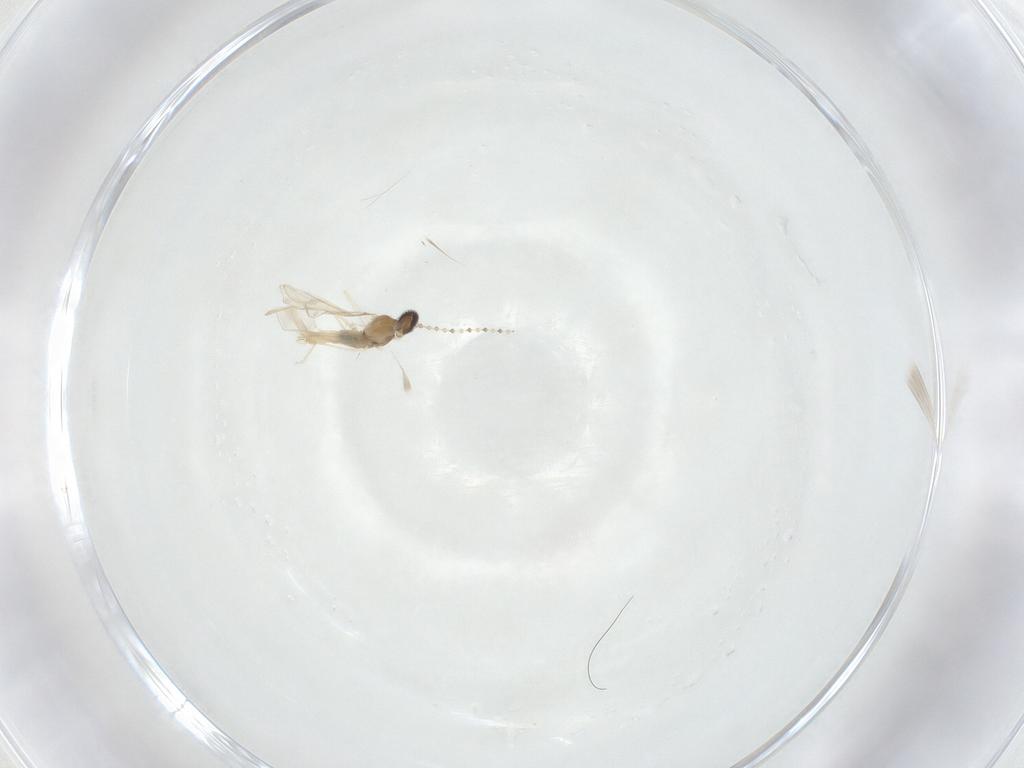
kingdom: Animalia
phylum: Arthropoda
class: Insecta
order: Diptera
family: Cecidomyiidae
